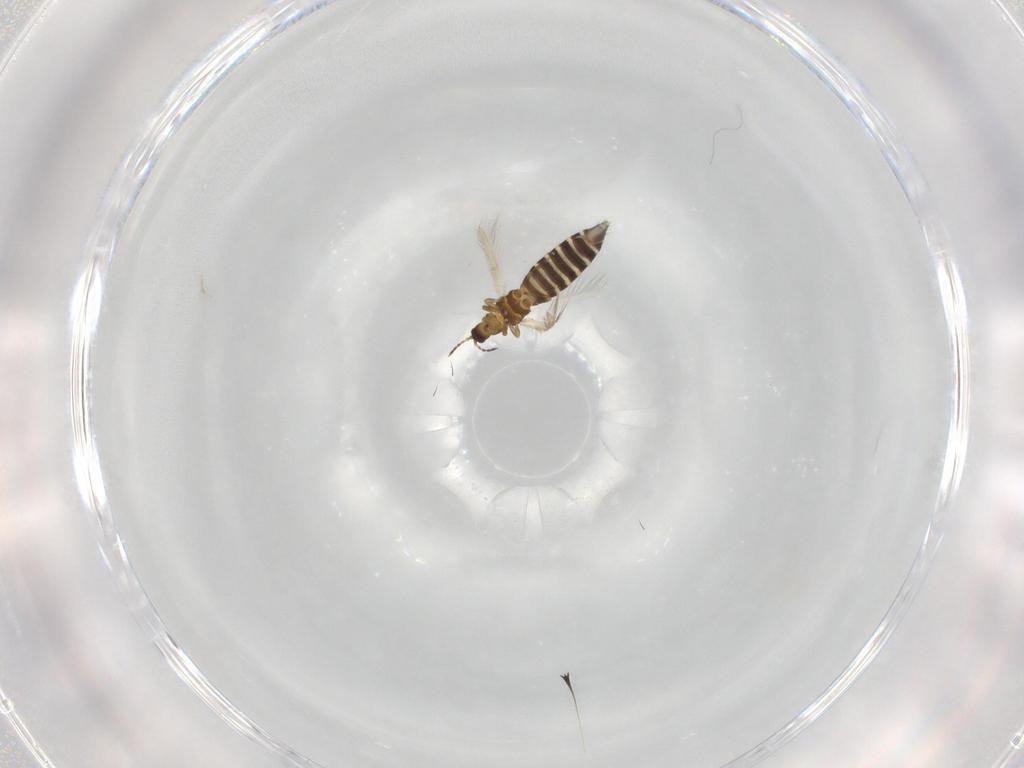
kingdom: Animalia
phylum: Arthropoda
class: Insecta
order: Thysanoptera
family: Thripidae
